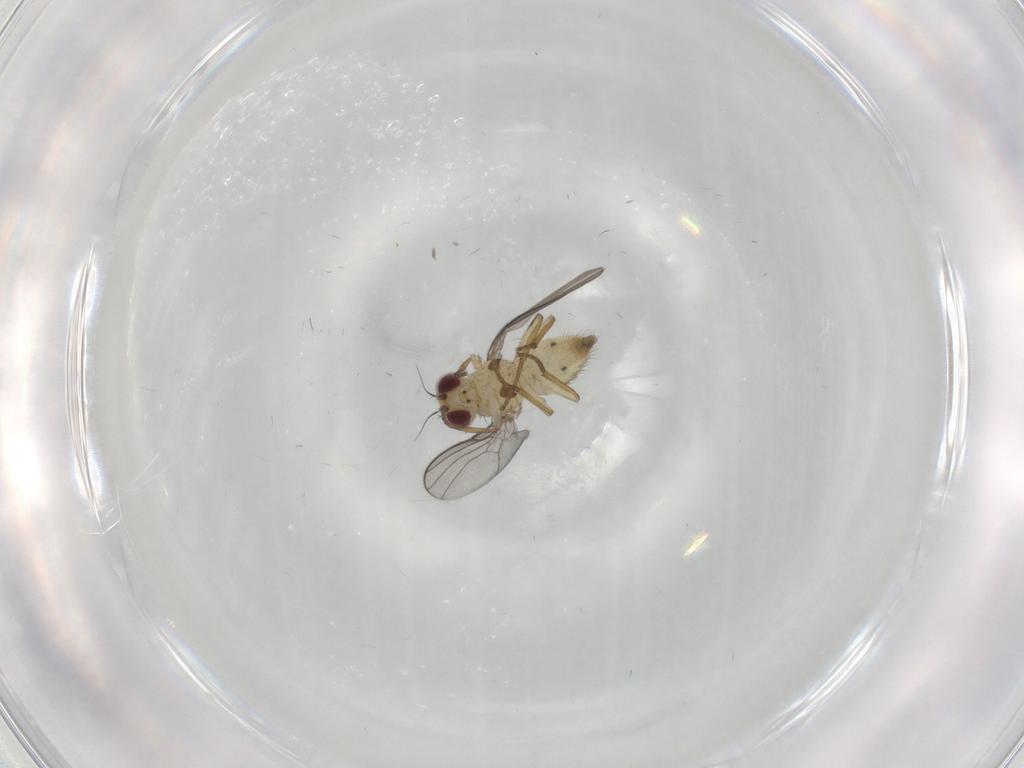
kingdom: Animalia
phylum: Arthropoda
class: Insecta
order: Diptera
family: Agromyzidae
